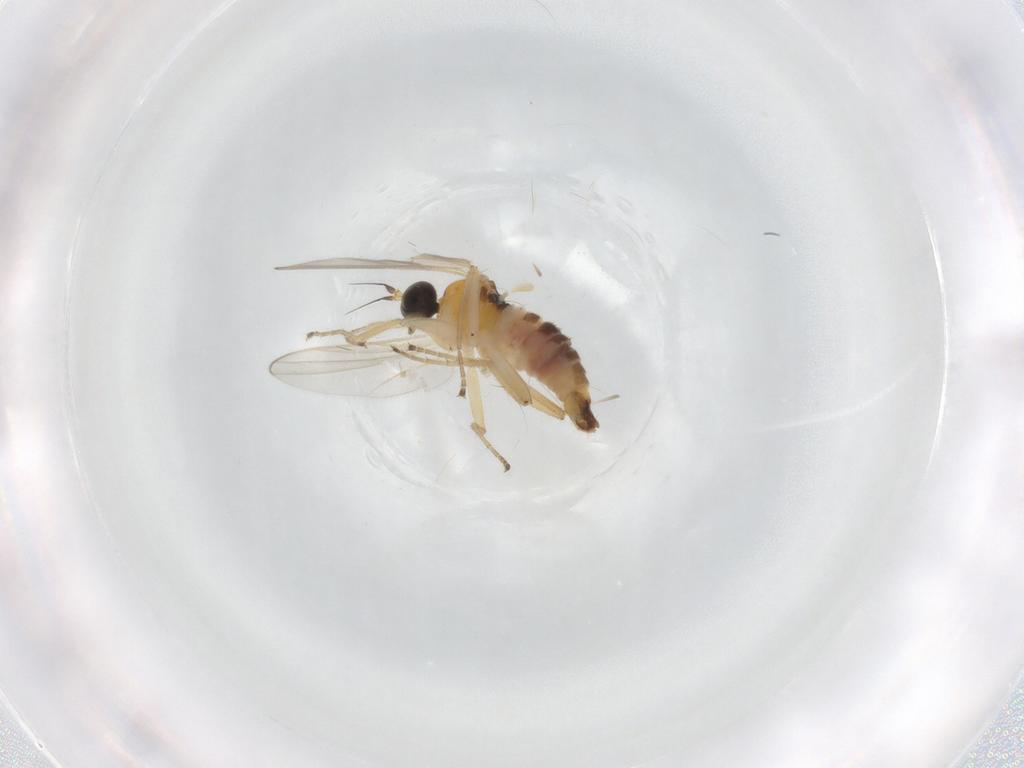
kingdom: Animalia
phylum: Arthropoda
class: Insecta
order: Diptera
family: Hybotidae
